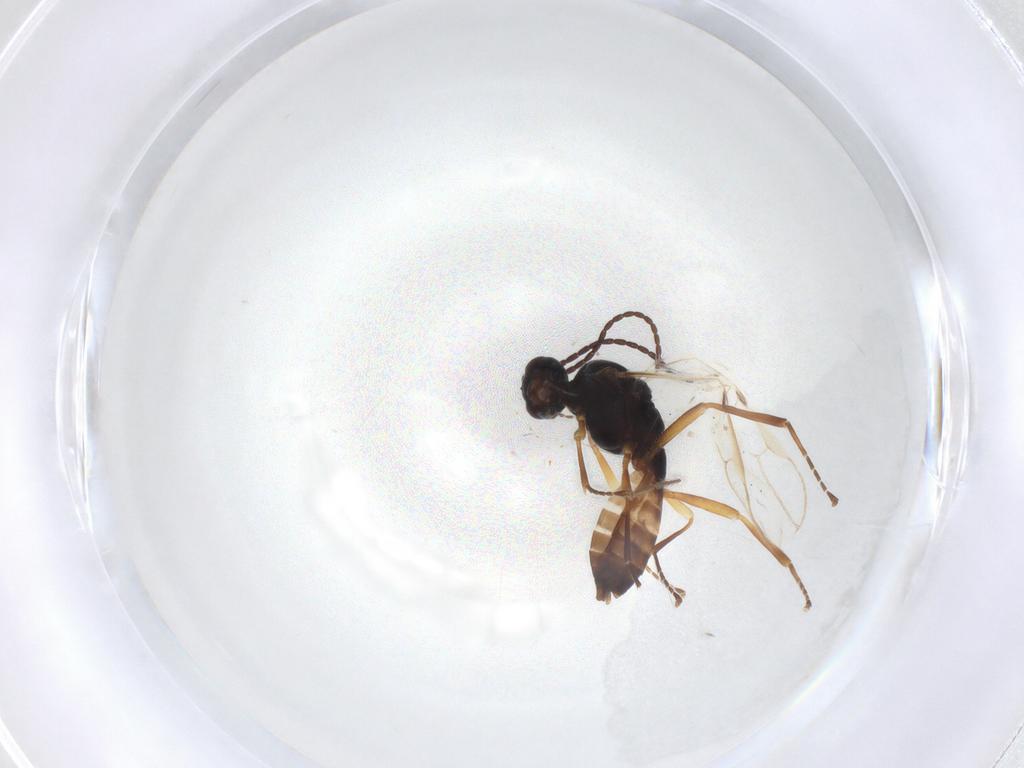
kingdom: Animalia
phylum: Arthropoda
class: Insecta
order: Hymenoptera
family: Braconidae
